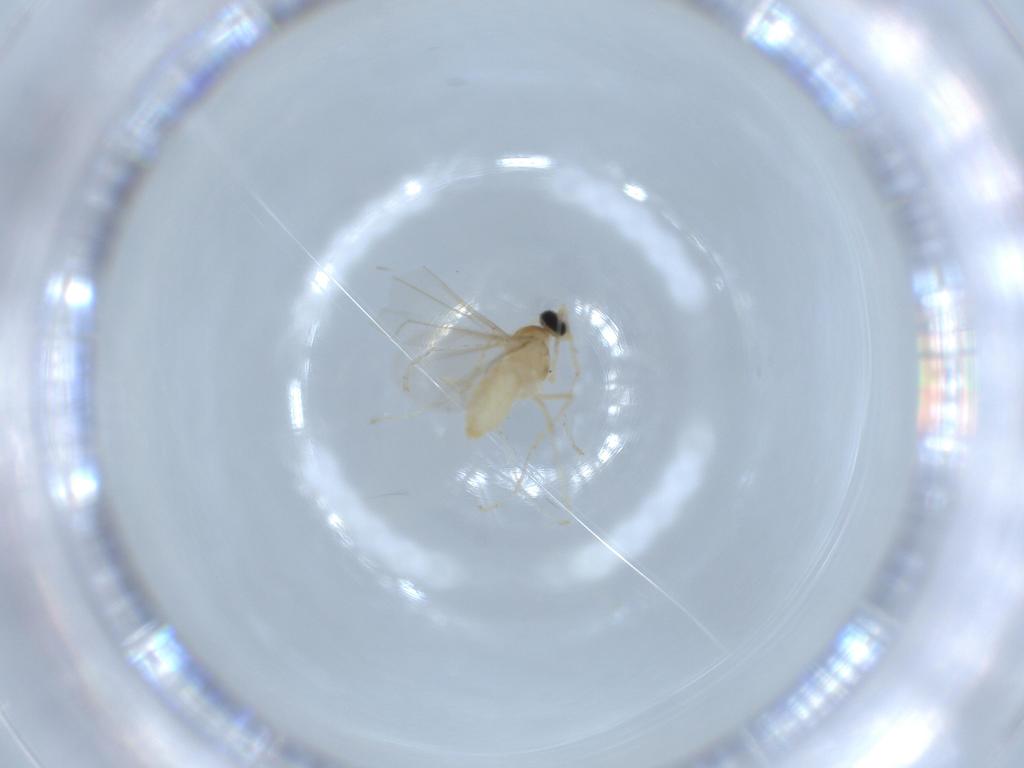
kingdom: Animalia
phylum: Arthropoda
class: Insecta
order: Diptera
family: Cecidomyiidae
